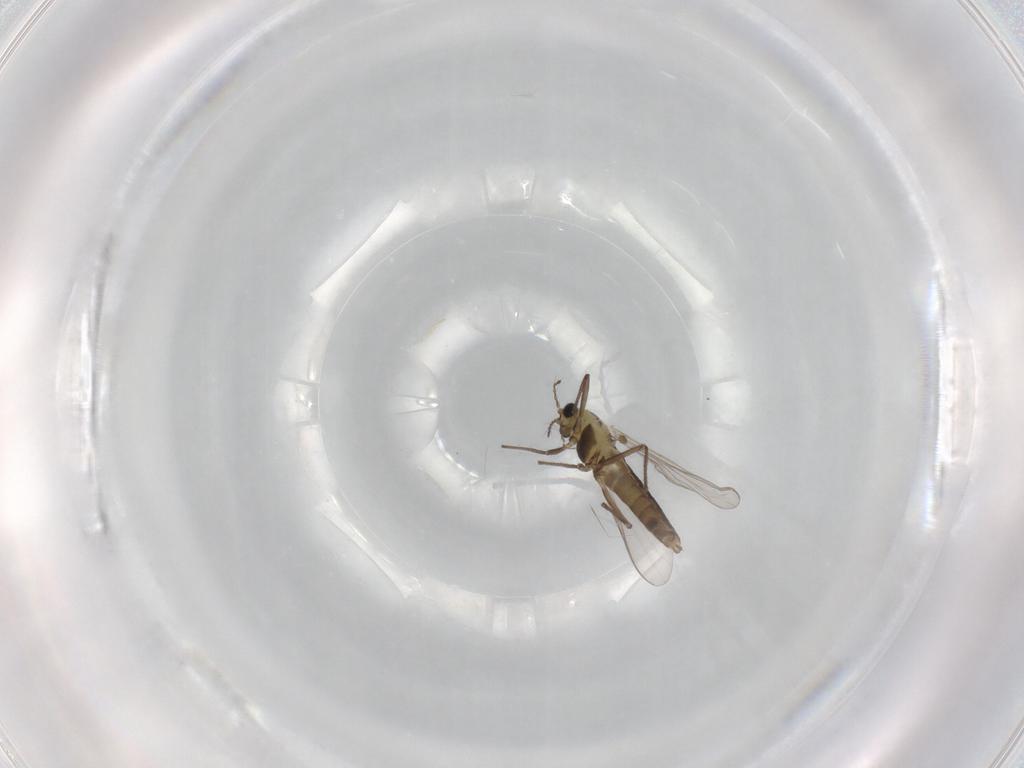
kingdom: Animalia
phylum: Arthropoda
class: Insecta
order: Diptera
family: Chironomidae
